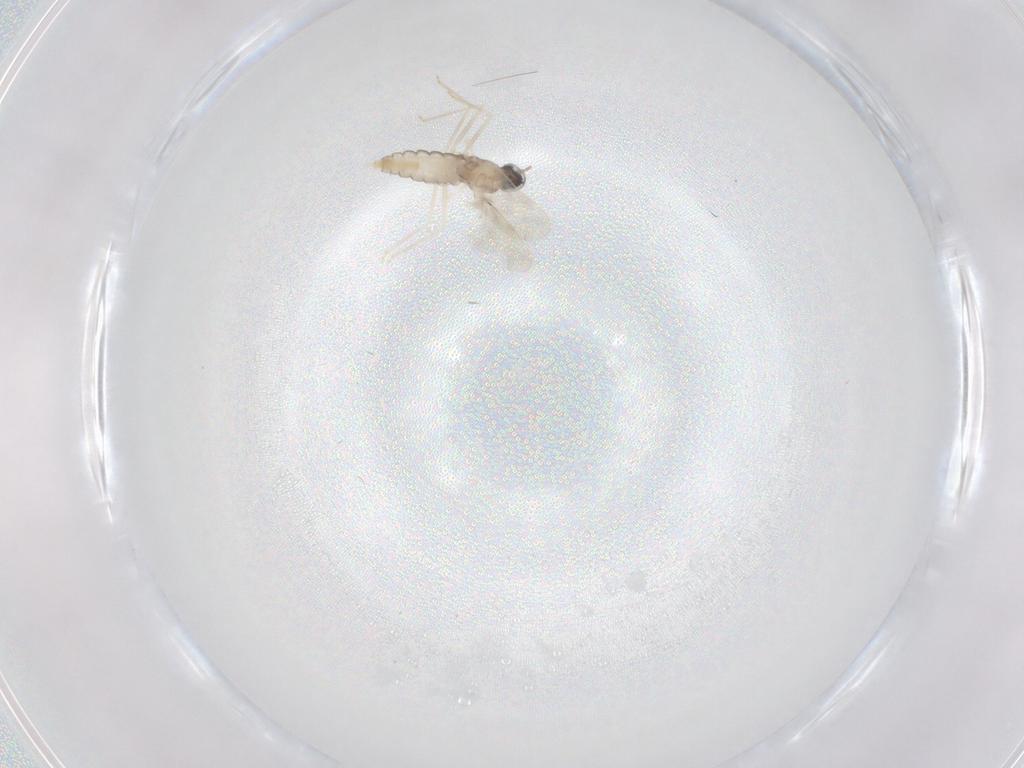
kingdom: Animalia
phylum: Arthropoda
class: Insecta
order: Diptera
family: Cecidomyiidae
